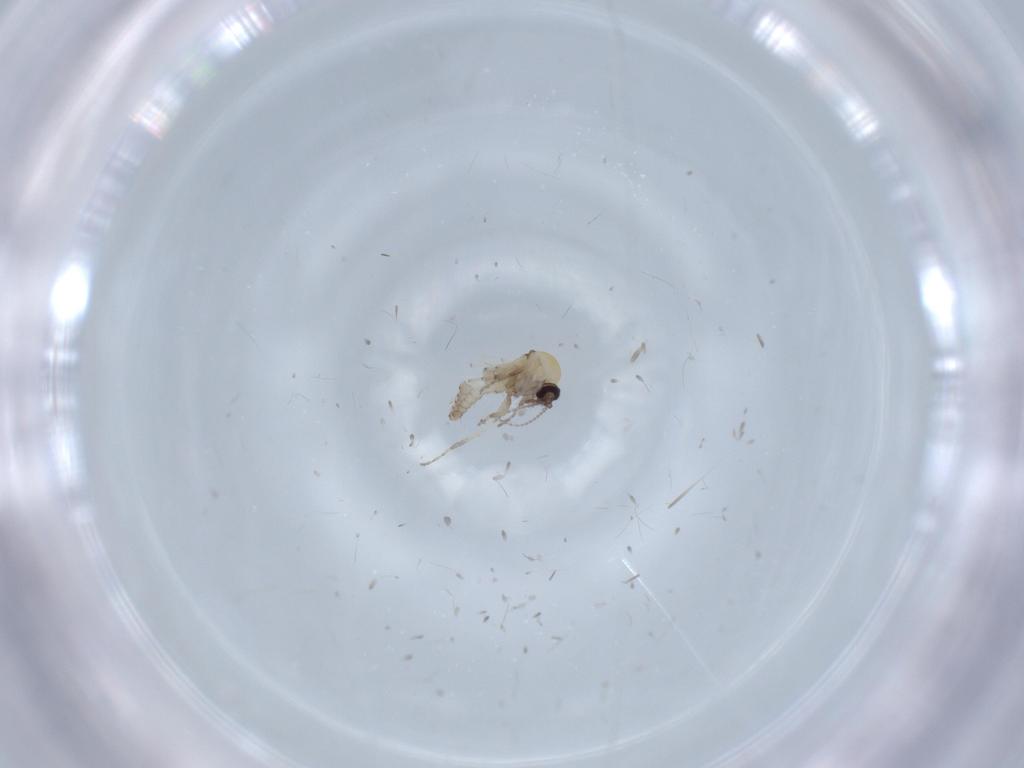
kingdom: Animalia
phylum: Arthropoda
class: Insecta
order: Diptera
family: Ceratopogonidae
